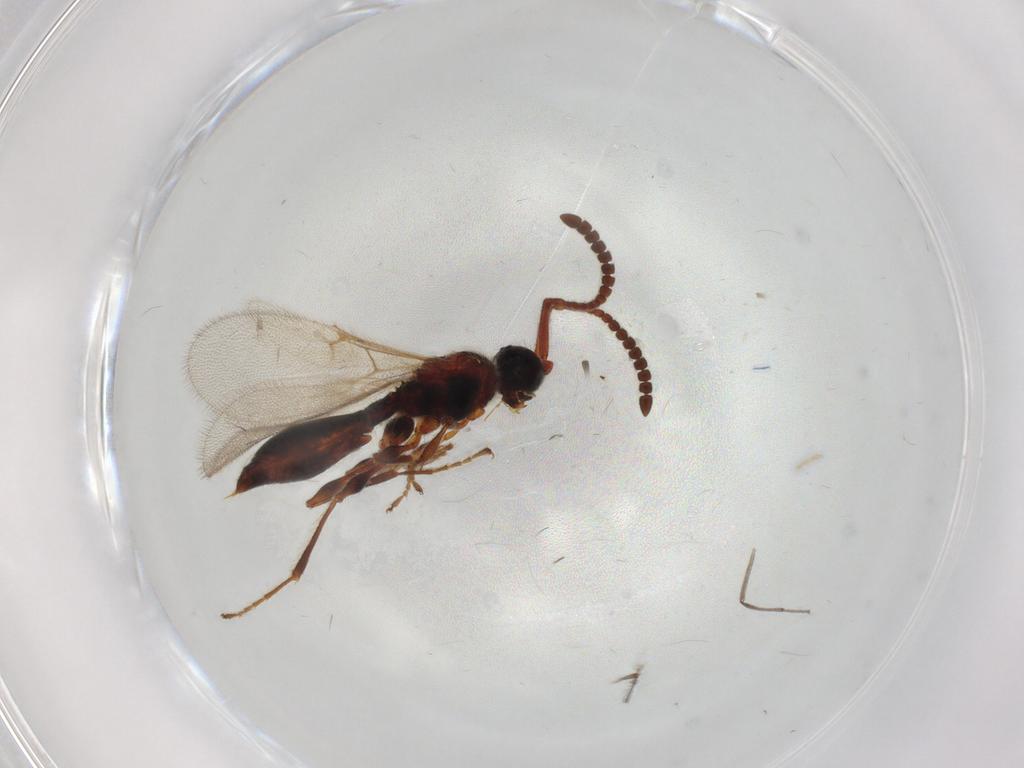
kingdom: Animalia
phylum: Arthropoda
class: Insecta
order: Hymenoptera
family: Diapriidae
